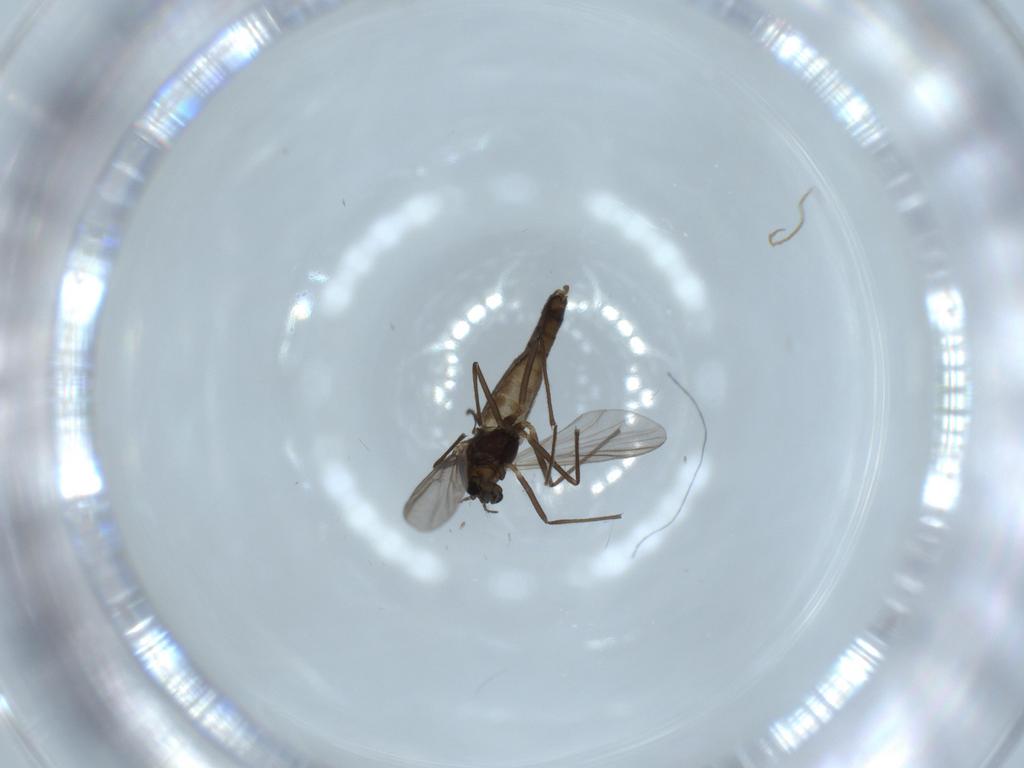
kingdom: Animalia
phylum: Arthropoda
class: Insecta
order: Diptera
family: Chironomidae
